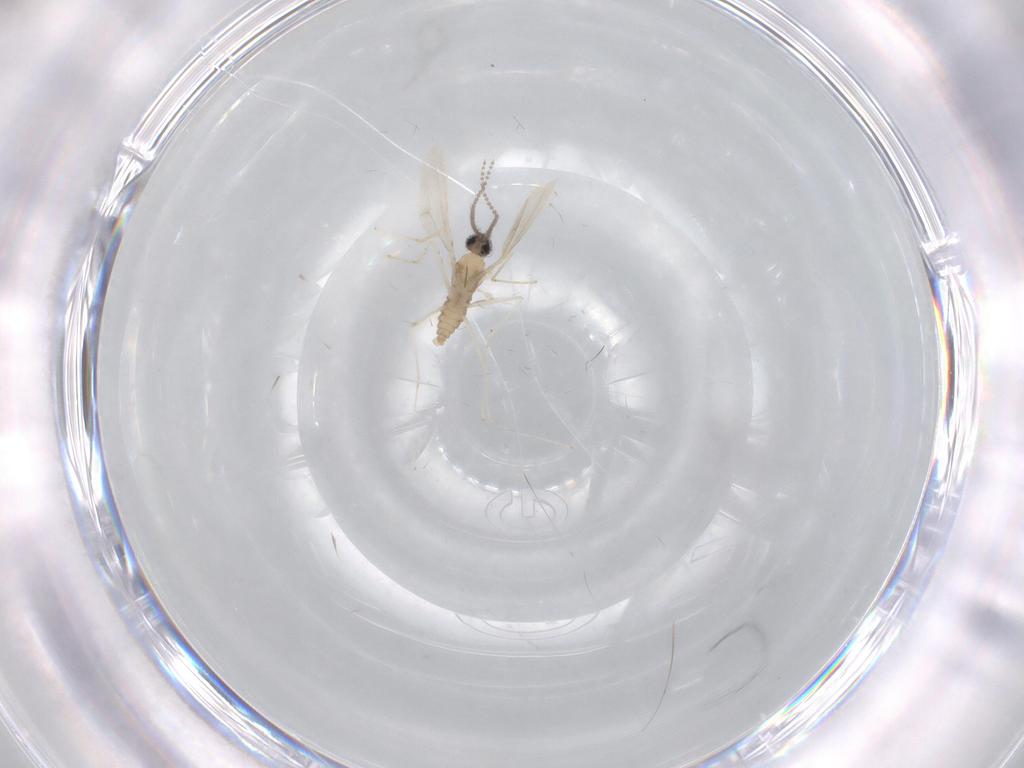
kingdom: Animalia
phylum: Arthropoda
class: Insecta
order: Diptera
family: Cecidomyiidae
